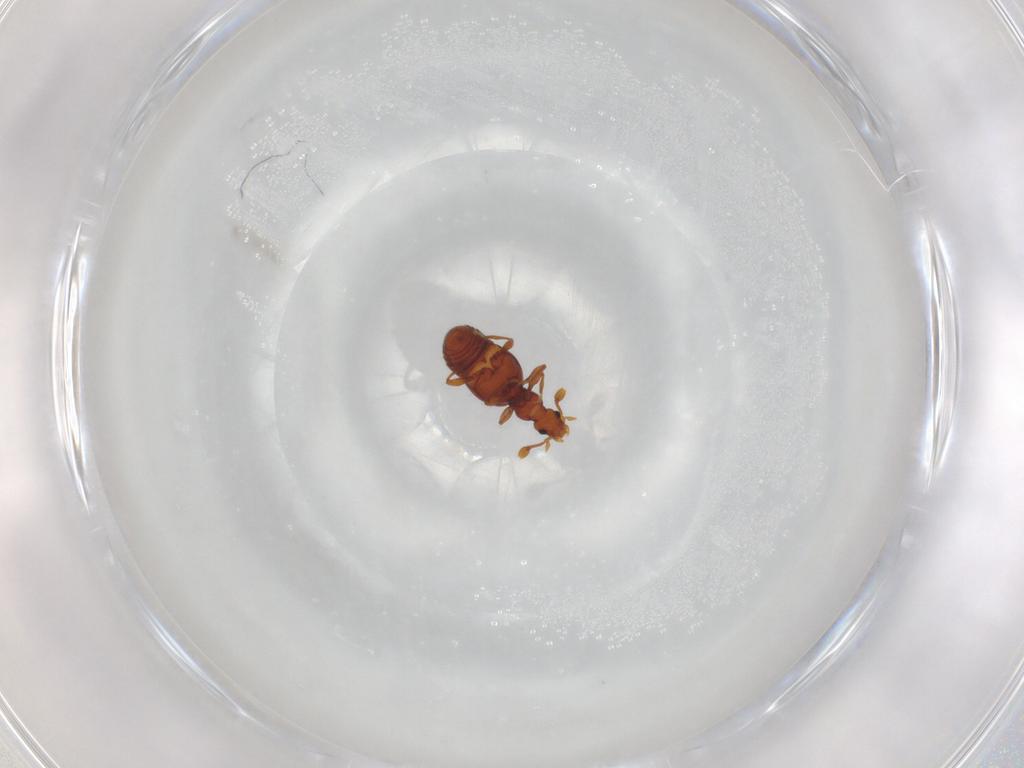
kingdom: Animalia
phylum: Arthropoda
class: Insecta
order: Coleoptera
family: Staphylinidae
